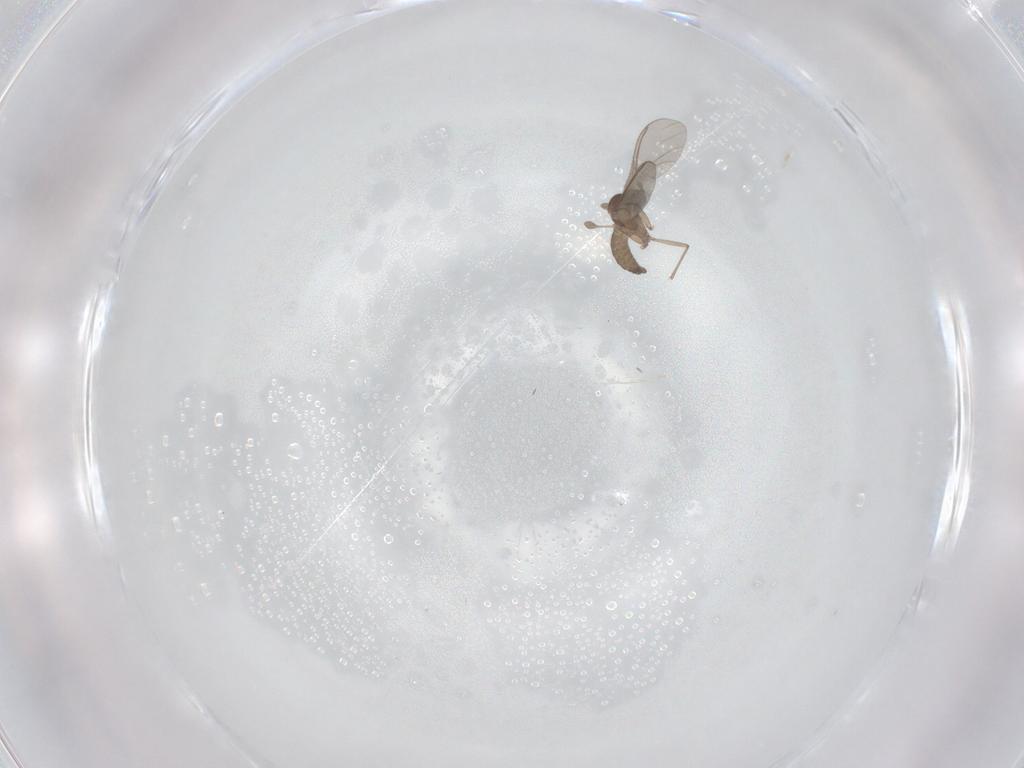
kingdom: Animalia
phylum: Arthropoda
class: Insecta
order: Diptera
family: Sciaridae
